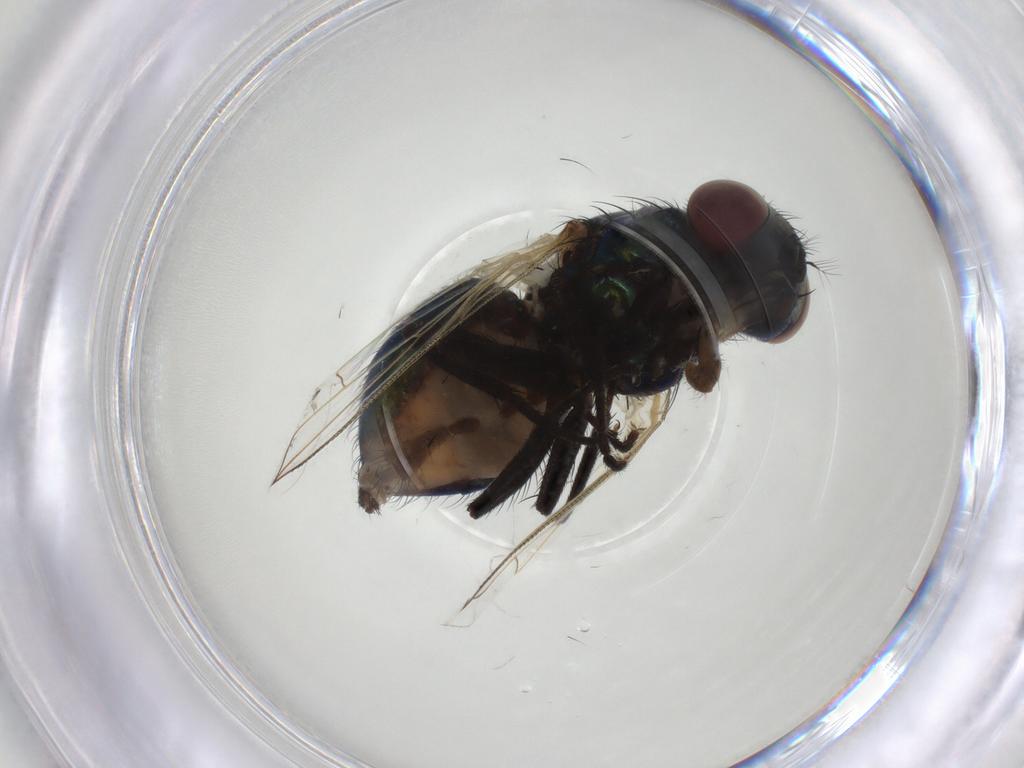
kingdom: Animalia
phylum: Arthropoda
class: Insecta
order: Diptera
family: Muscidae
